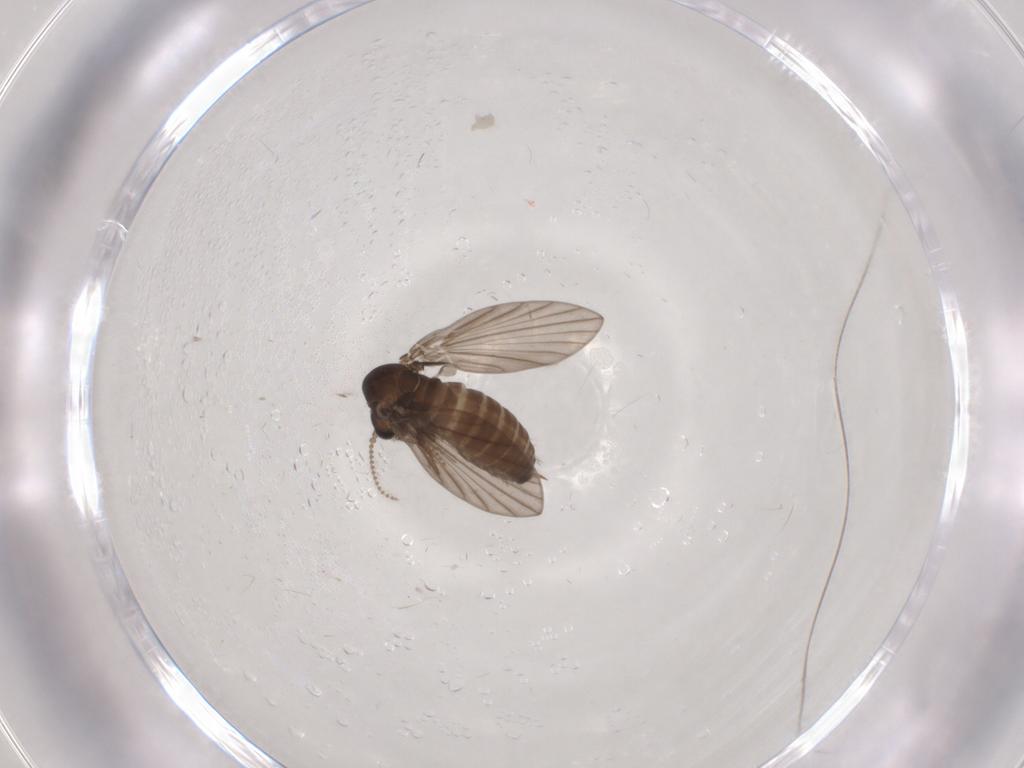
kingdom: Animalia
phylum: Arthropoda
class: Insecta
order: Diptera
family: Psychodidae
